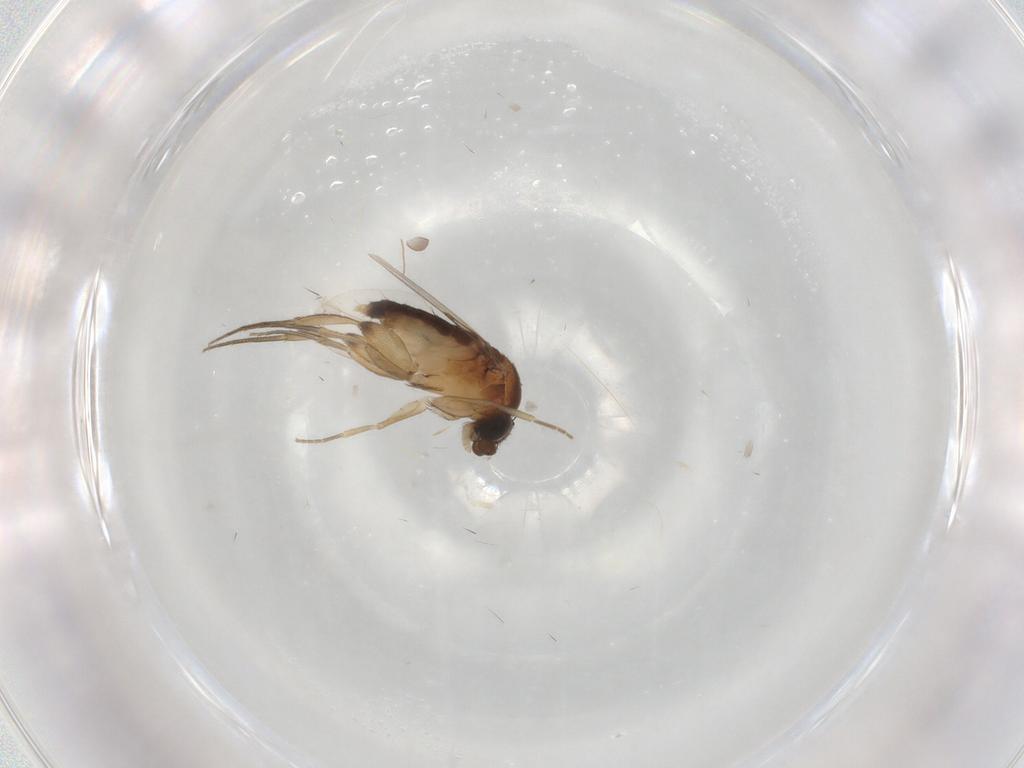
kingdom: Animalia
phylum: Arthropoda
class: Insecta
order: Diptera
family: Phoridae
